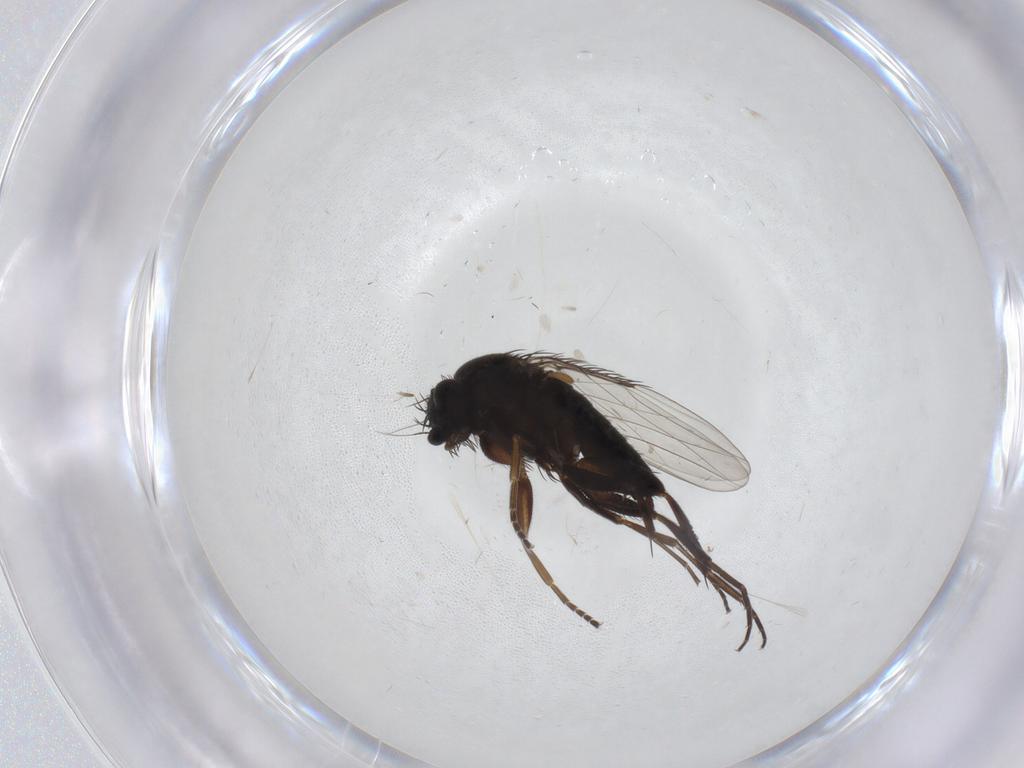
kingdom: Animalia
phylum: Arthropoda
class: Insecta
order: Diptera
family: Phoridae
